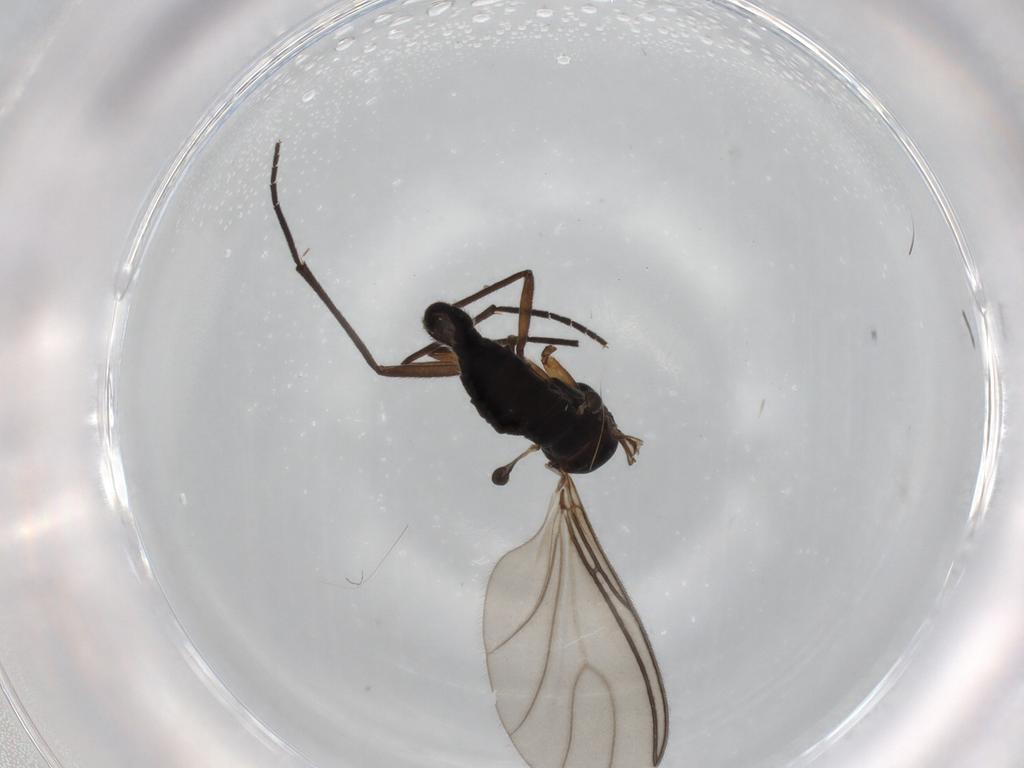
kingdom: Animalia
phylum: Arthropoda
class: Insecta
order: Diptera
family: Sciaridae
